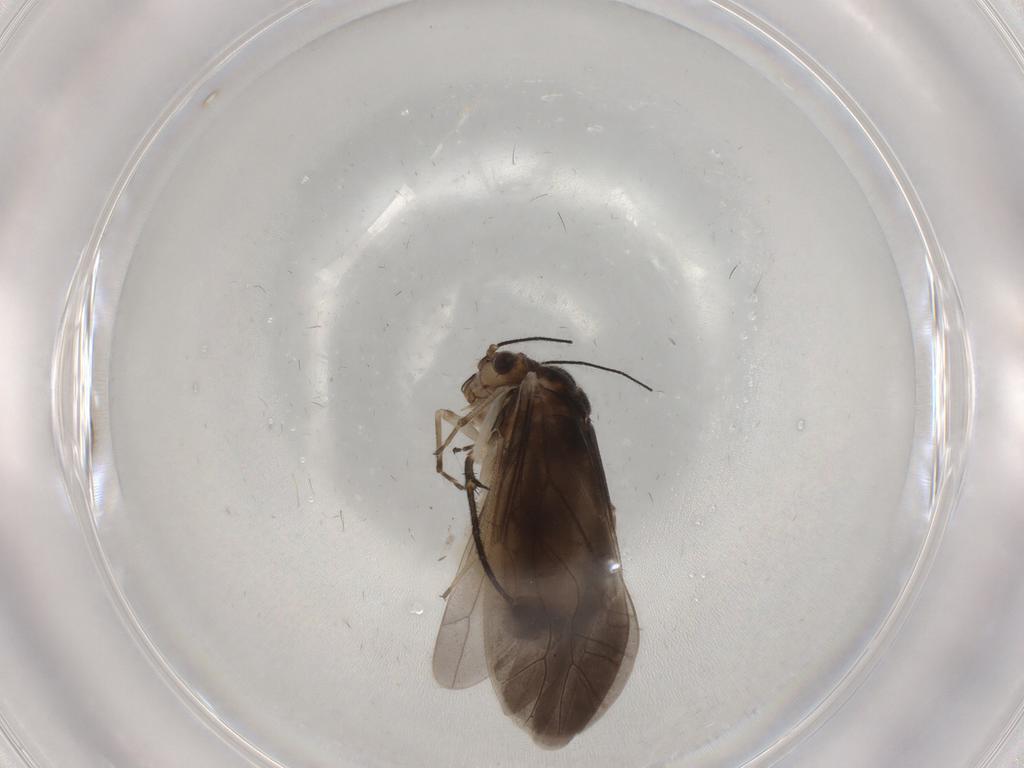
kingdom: Animalia
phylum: Arthropoda
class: Insecta
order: Psocodea
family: Caeciliusidae
